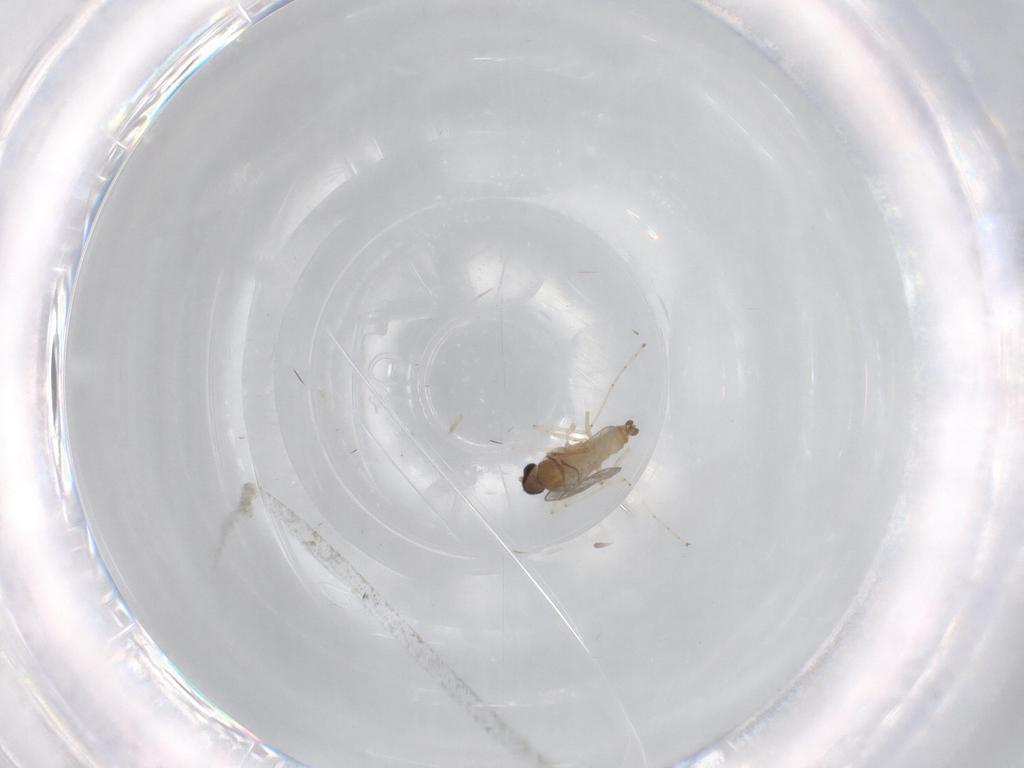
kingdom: Animalia
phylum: Arthropoda
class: Insecta
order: Diptera
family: Cecidomyiidae
